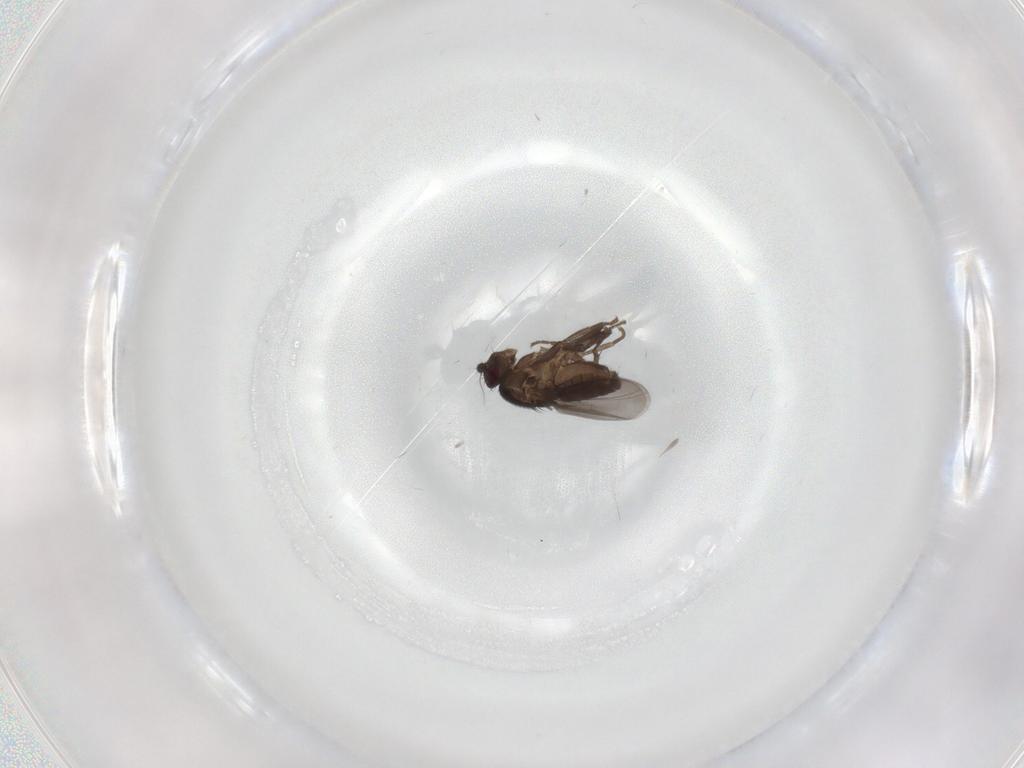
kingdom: Animalia
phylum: Arthropoda
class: Insecta
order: Diptera
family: Sphaeroceridae
